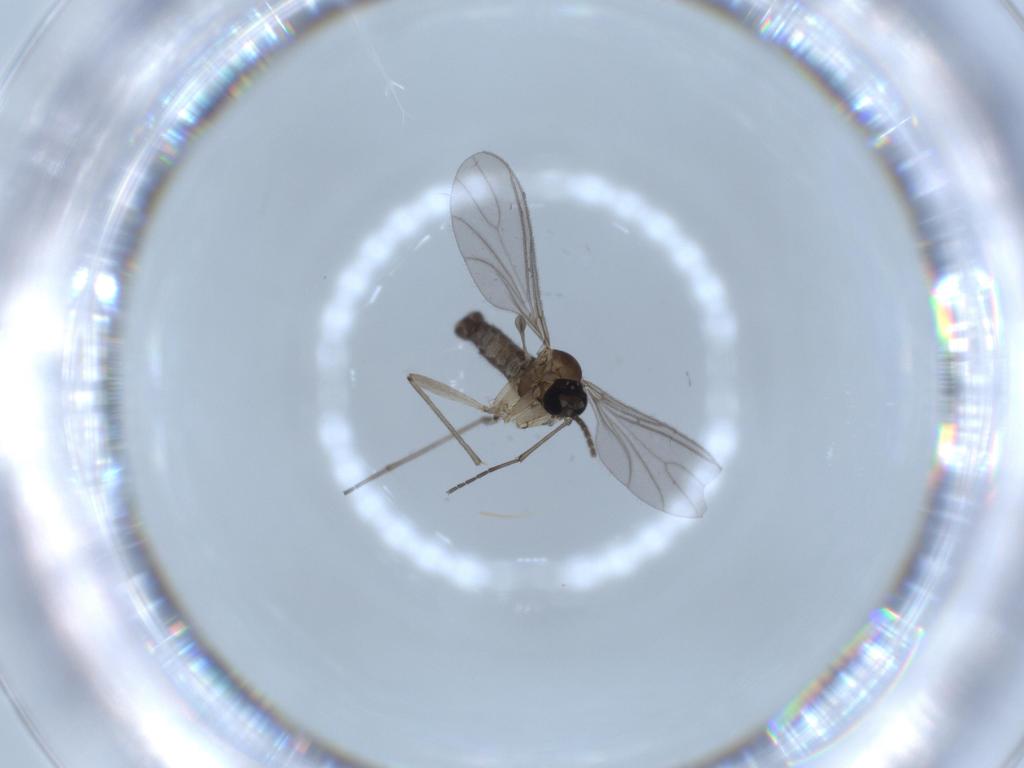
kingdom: Animalia
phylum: Arthropoda
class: Insecta
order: Diptera
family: Sciaridae
